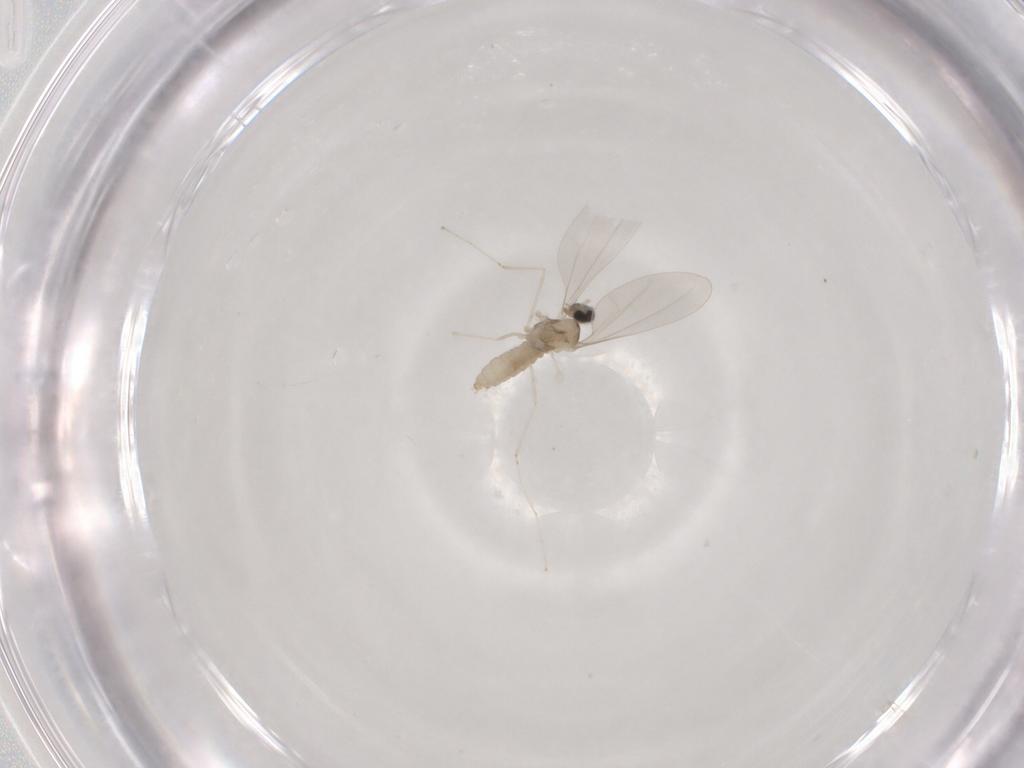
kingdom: Animalia
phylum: Arthropoda
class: Insecta
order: Diptera
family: Cecidomyiidae
